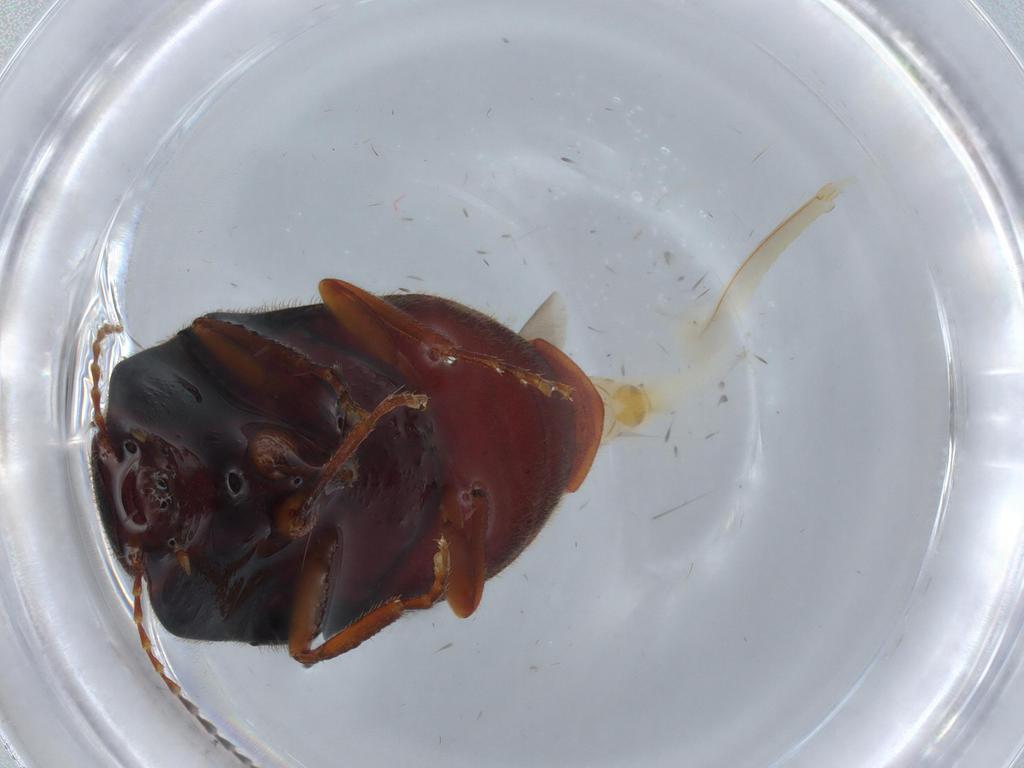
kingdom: Animalia
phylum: Arthropoda
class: Insecta
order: Coleoptera
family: Elateridae
